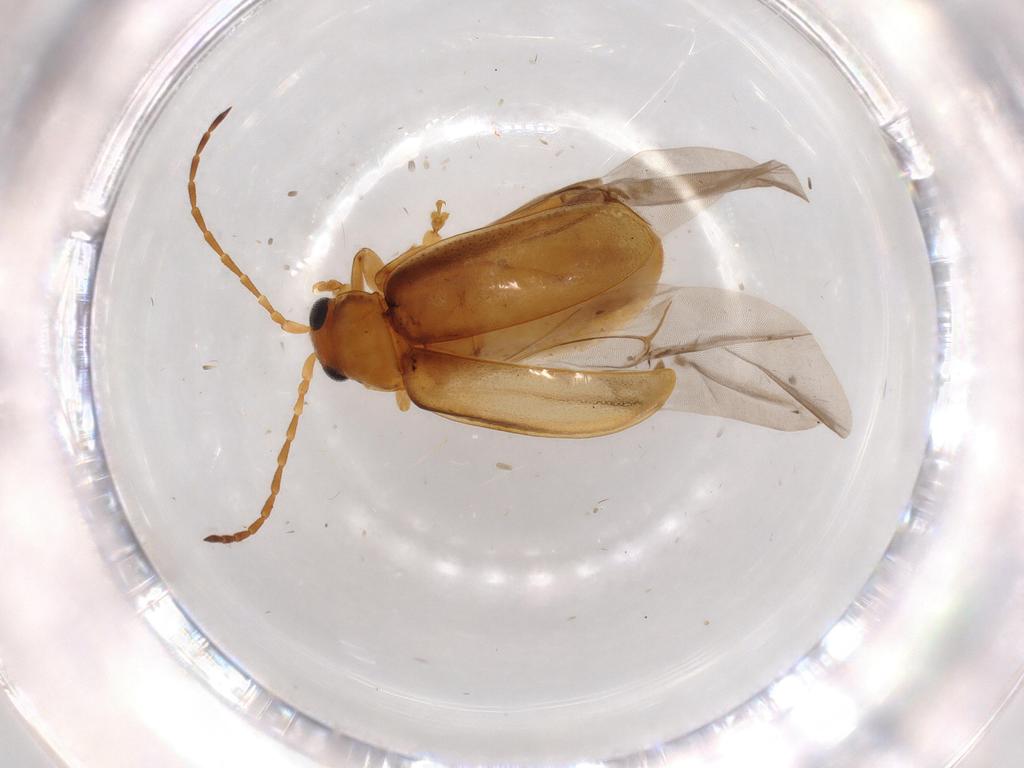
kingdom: Animalia
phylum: Arthropoda
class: Insecta
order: Coleoptera
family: Chrysomelidae
